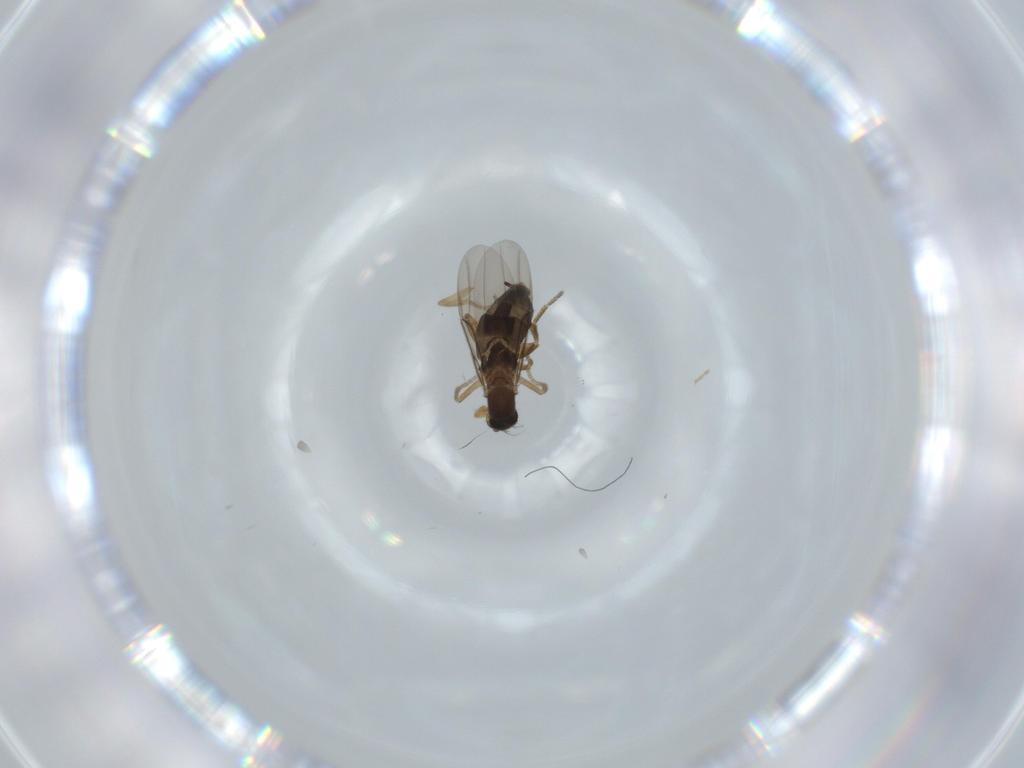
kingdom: Animalia
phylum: Arthropoda
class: Insecta
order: Diptera
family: Phoridae
